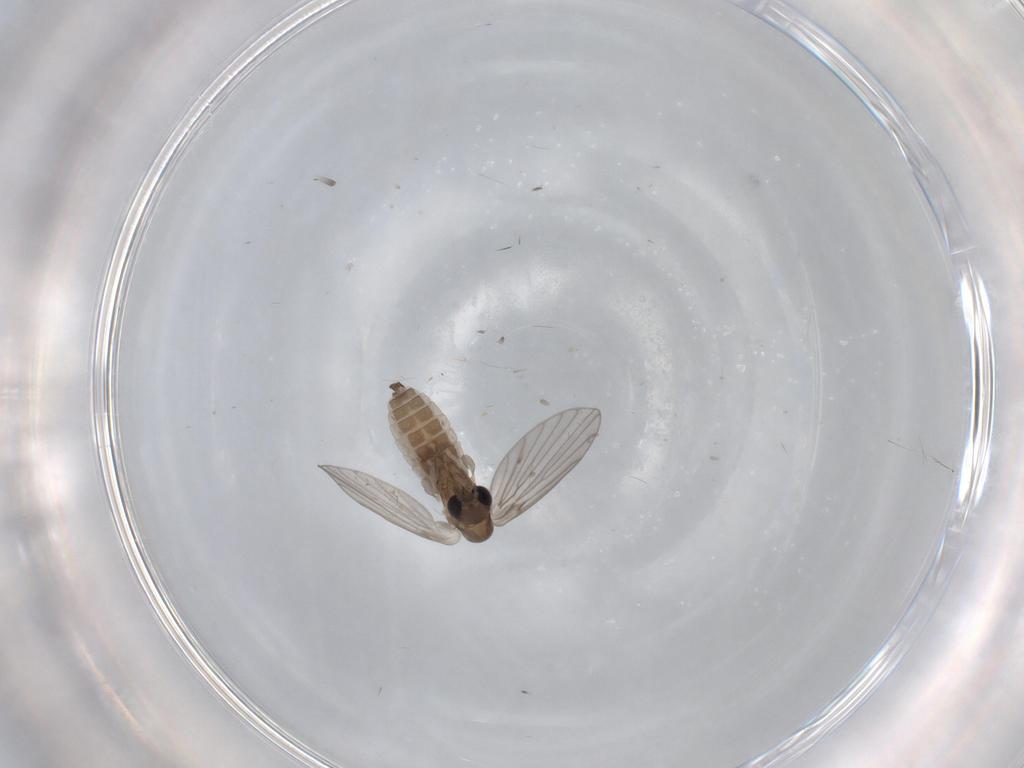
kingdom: Animalia
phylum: Arthropoda
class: Insecta
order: Diptera
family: Psychodidae
